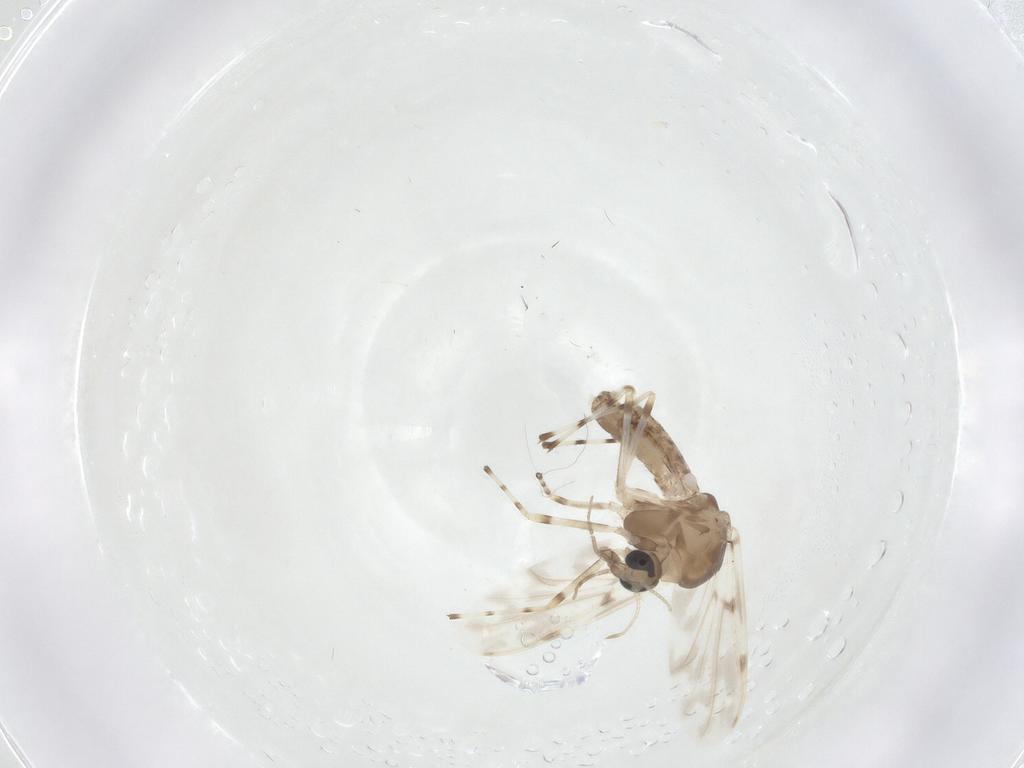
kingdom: Animalia
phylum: Arthropoda
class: Insecta
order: Diptera
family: Chironomidae
